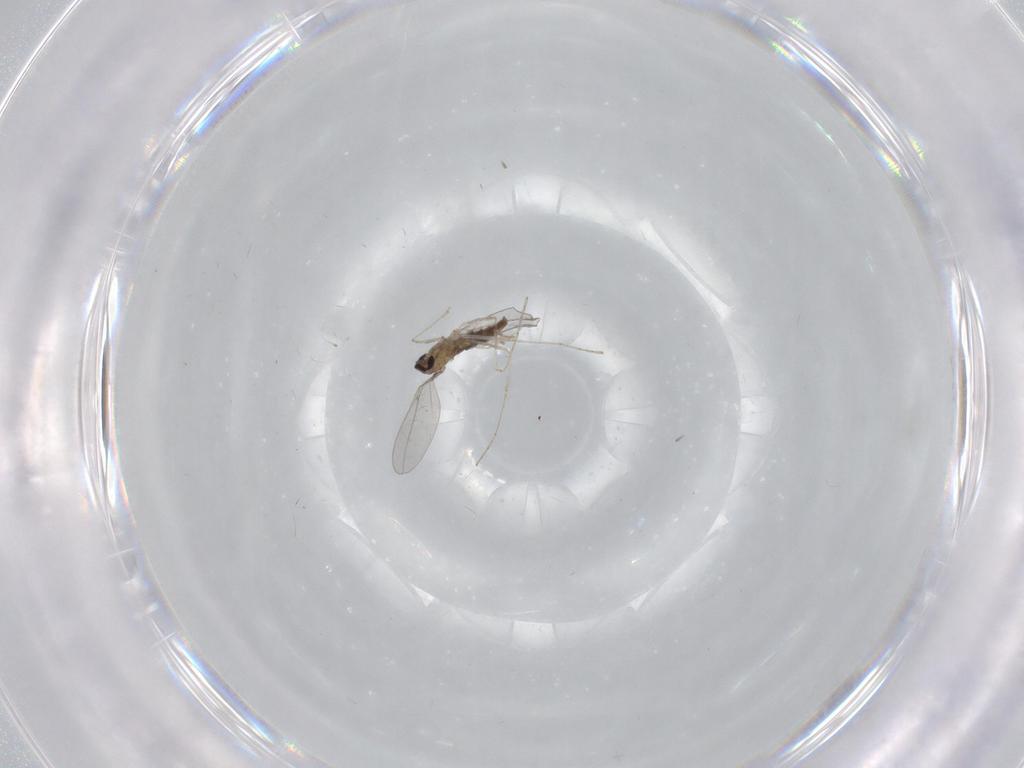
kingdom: Animalia
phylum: Arthropoda
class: Insecta
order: Diptera
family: Cecidomyiidae
